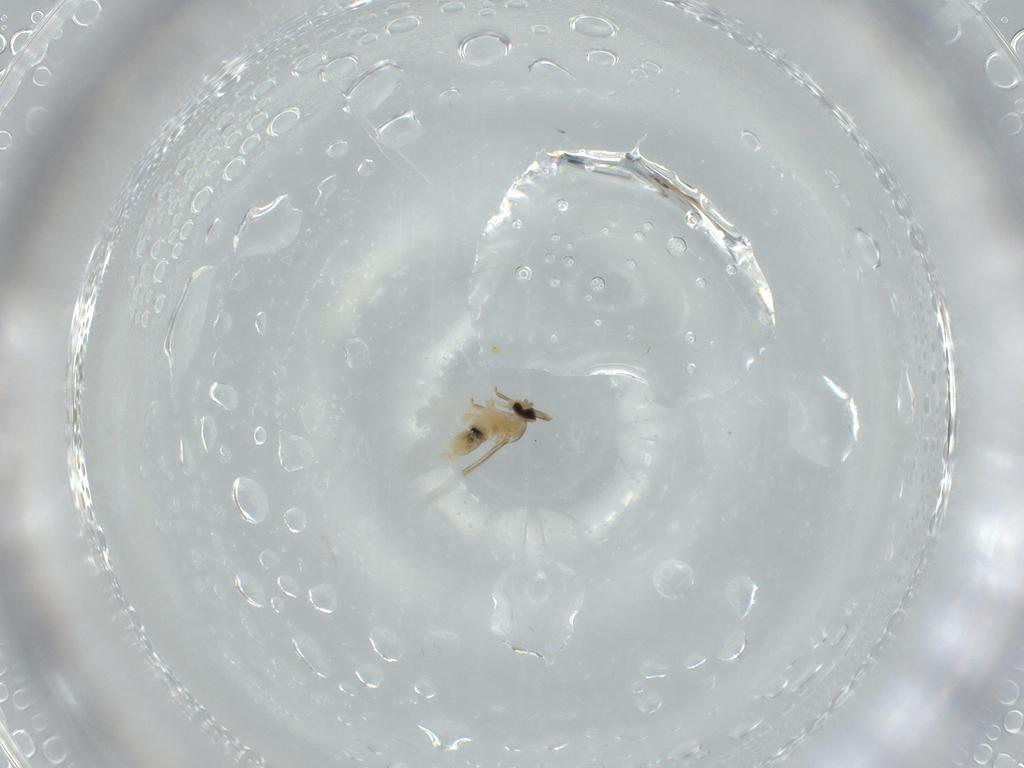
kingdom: Animalia
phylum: Arthropoda
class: Insecta
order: Diptera
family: Cecidomyiidae
